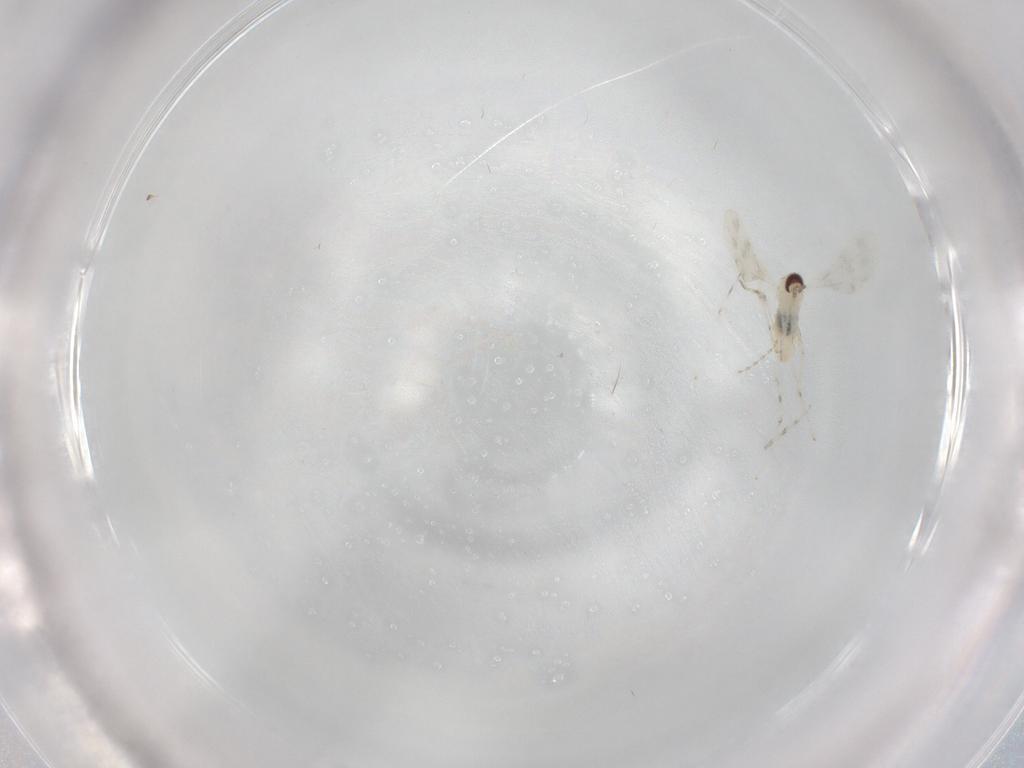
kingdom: Animalia
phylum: Arthropoda
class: Insecta
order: Diptera
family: Cecidomyiidae
